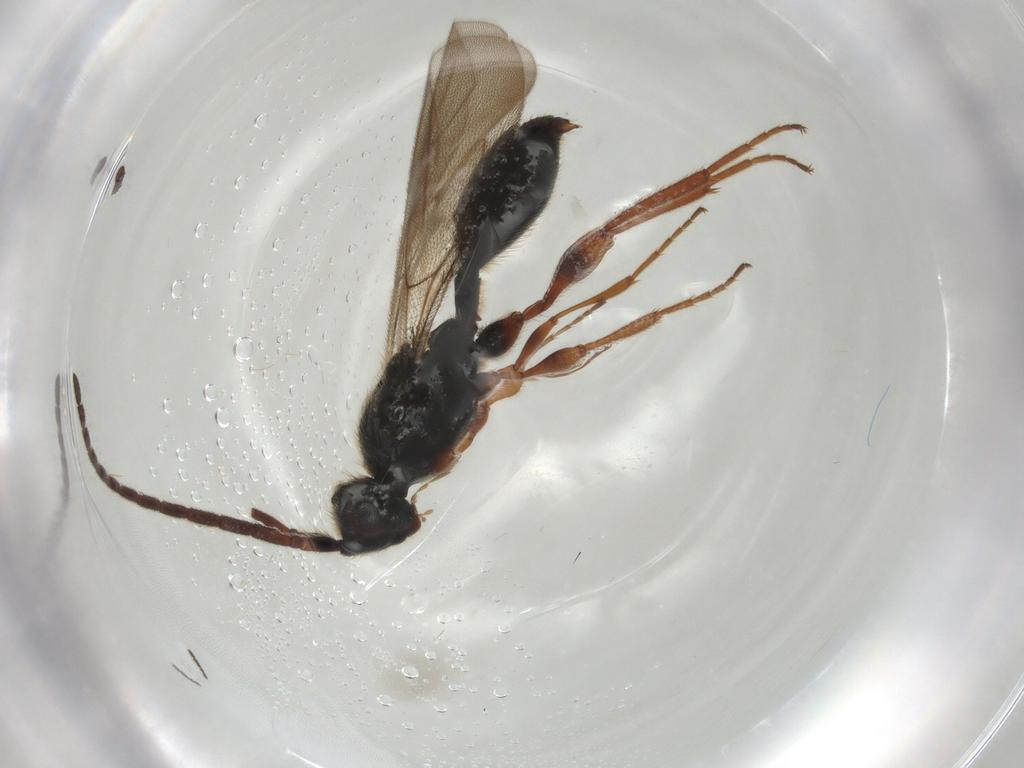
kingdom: Animalia
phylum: Arthropoda
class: Insecta
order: Hymenoptera
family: Ichneumonidae
